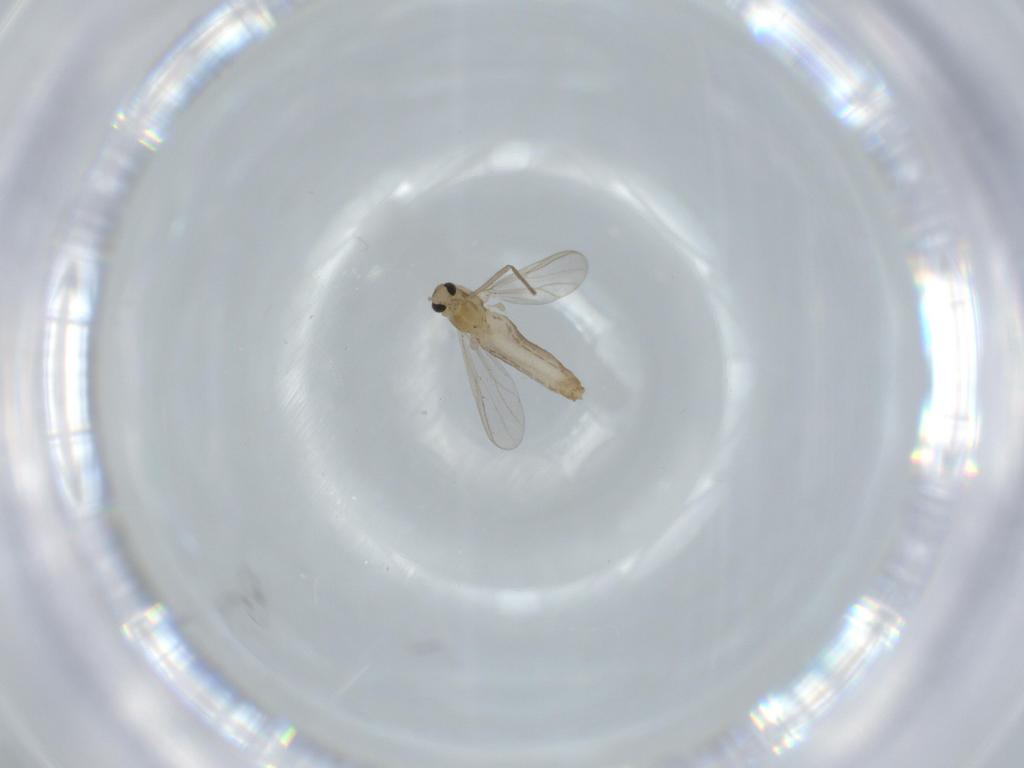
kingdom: Animalia
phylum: Arthropoda
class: Insecta
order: Diptera
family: Chironomidae
